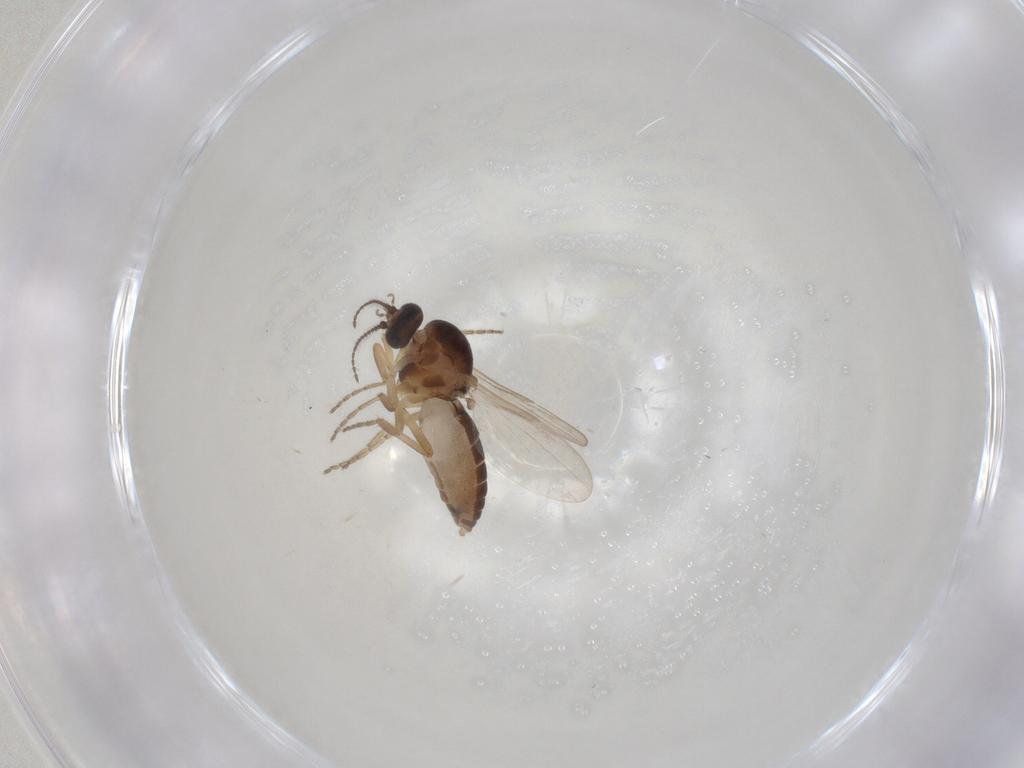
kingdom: Animalia
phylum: Arthropoda
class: Insecta
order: Diptera
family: Ceratopogonidae
